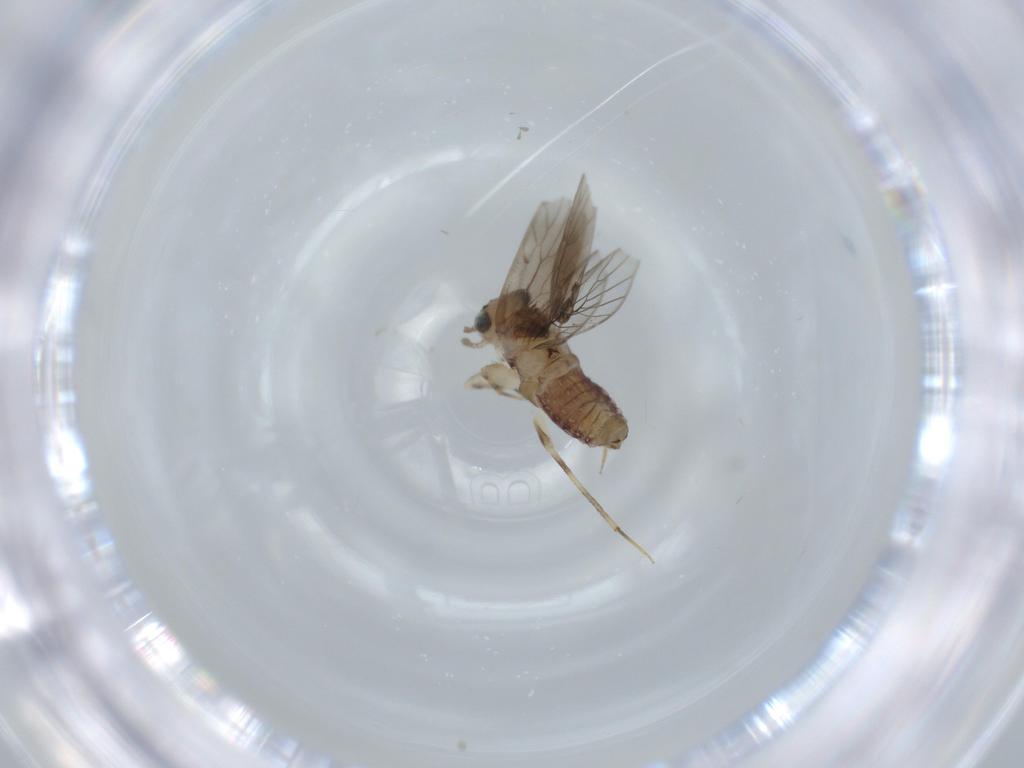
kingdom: Animalia
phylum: Arthropoda
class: Insecta
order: Psocodea
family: Lepidopsocidae
